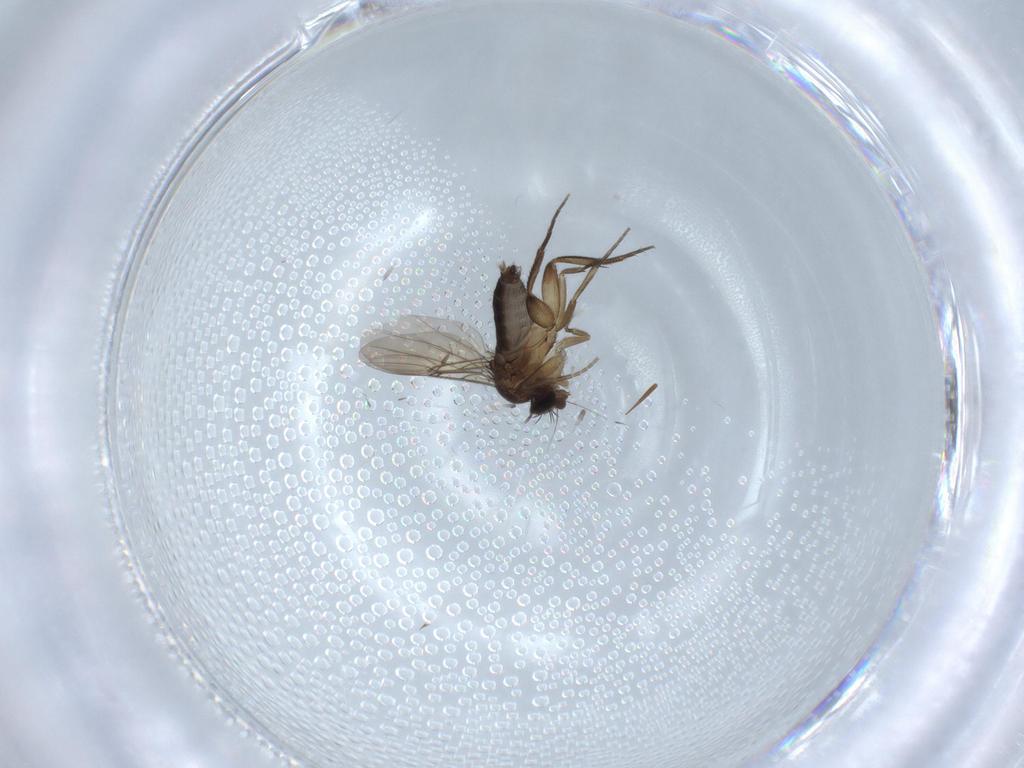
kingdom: Animalia
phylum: Arthropoda
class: Insecta
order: Diptera
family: Phoridae
